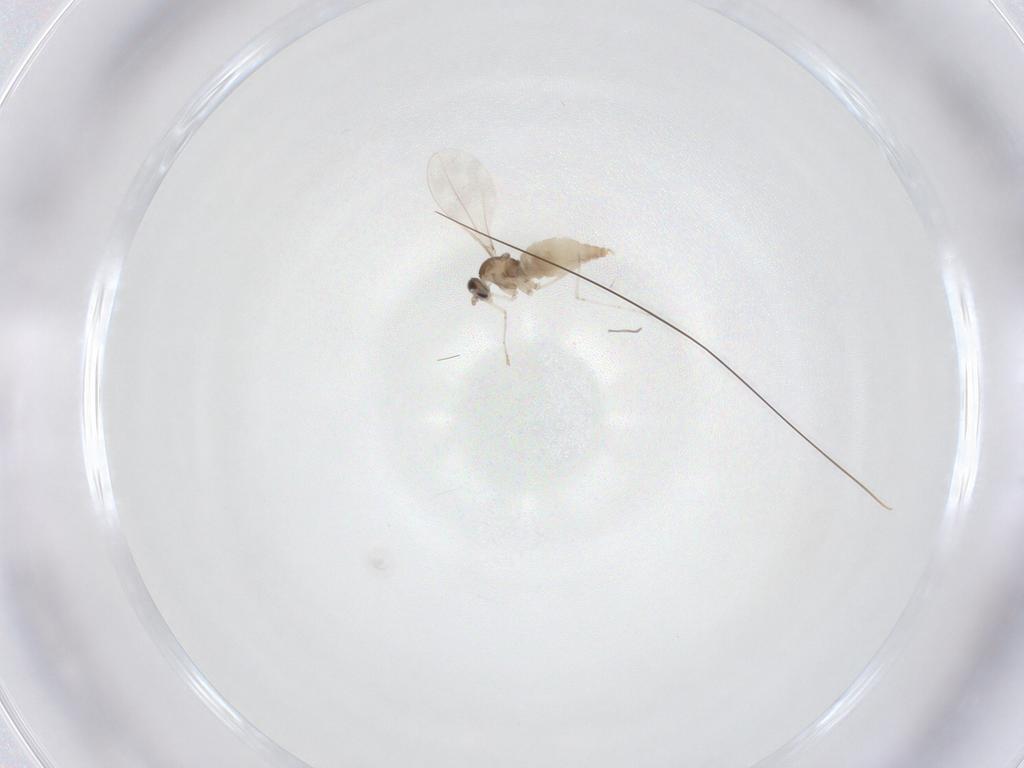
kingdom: Animalia
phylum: Arthropoda
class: Insecta
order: Diptera
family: Cecidomyiidae
